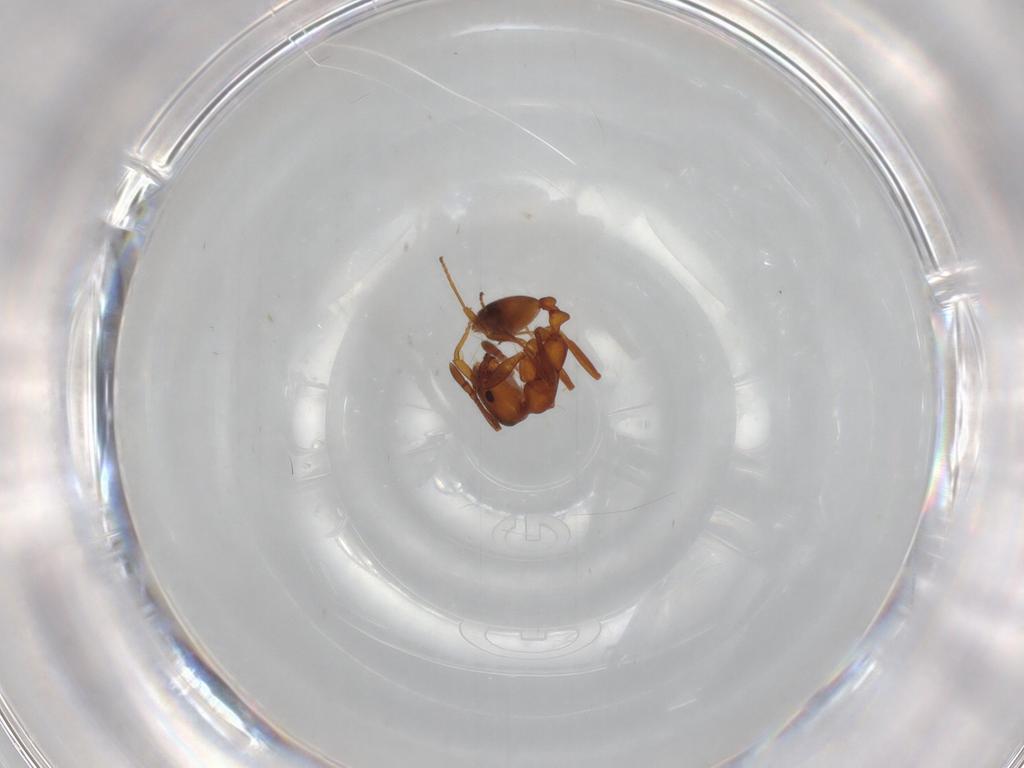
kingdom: Animalia
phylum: Arthropoda
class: Insecta
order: Hymenoptera
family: Formicidae
